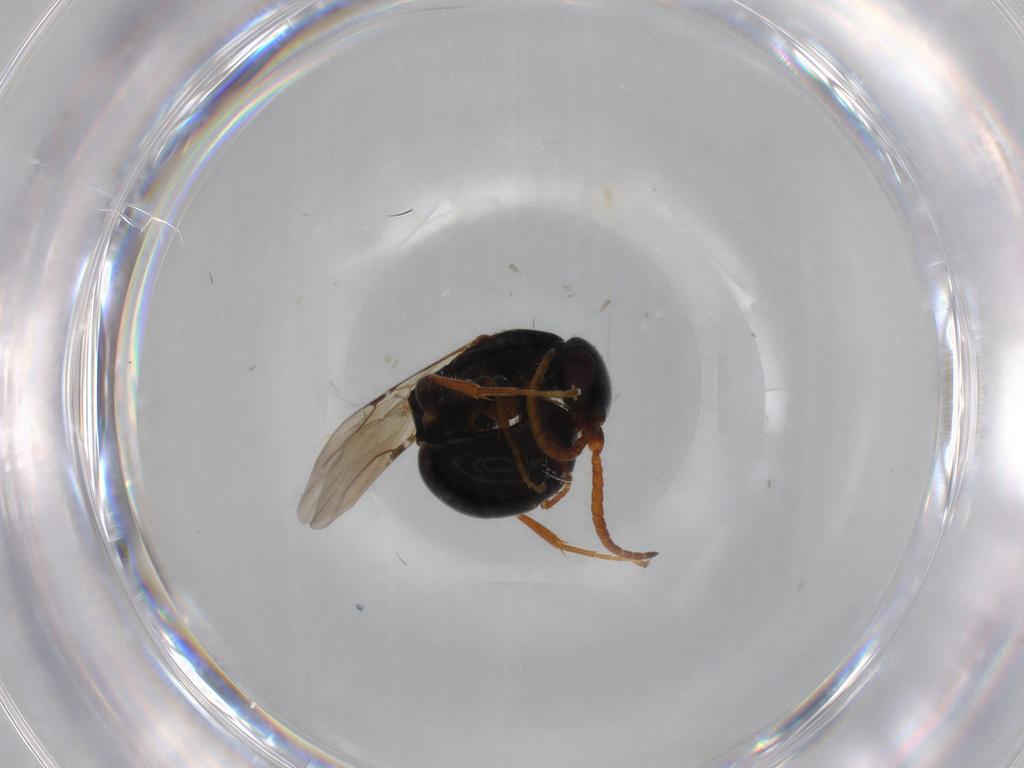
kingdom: Animalia
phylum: Arthropoda
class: Insecta
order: Hymenoptera
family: Bethylidae
